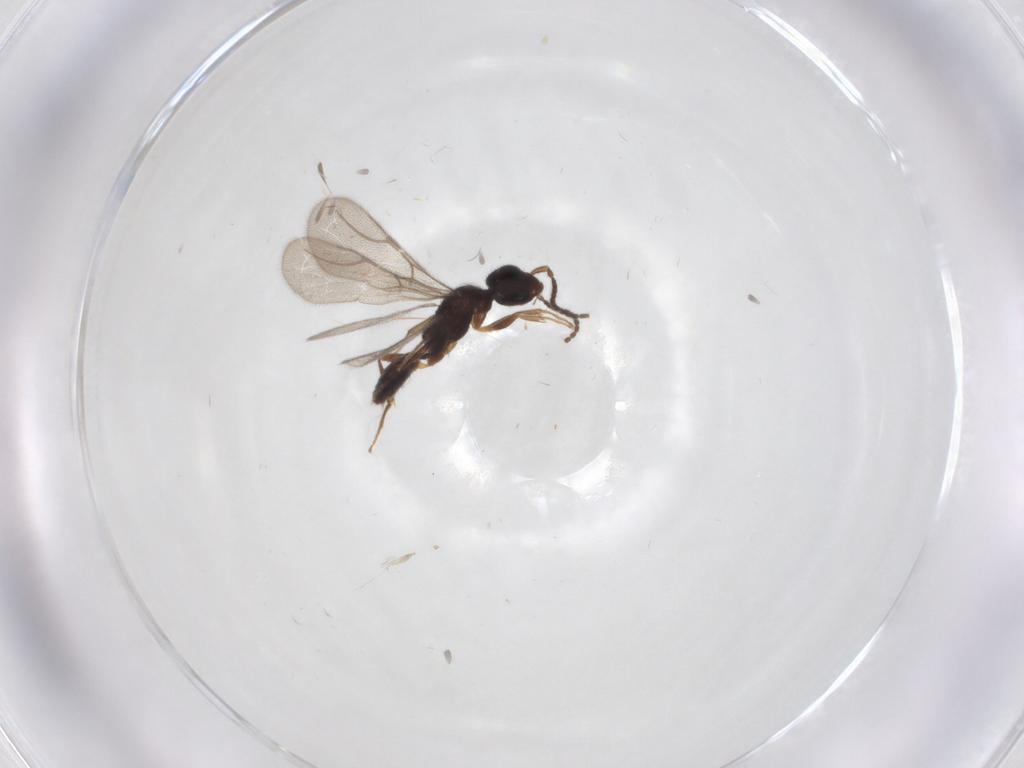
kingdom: Animalia
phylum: Arthropoda
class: Insecta
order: Hymenoptera
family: Bethylidae
